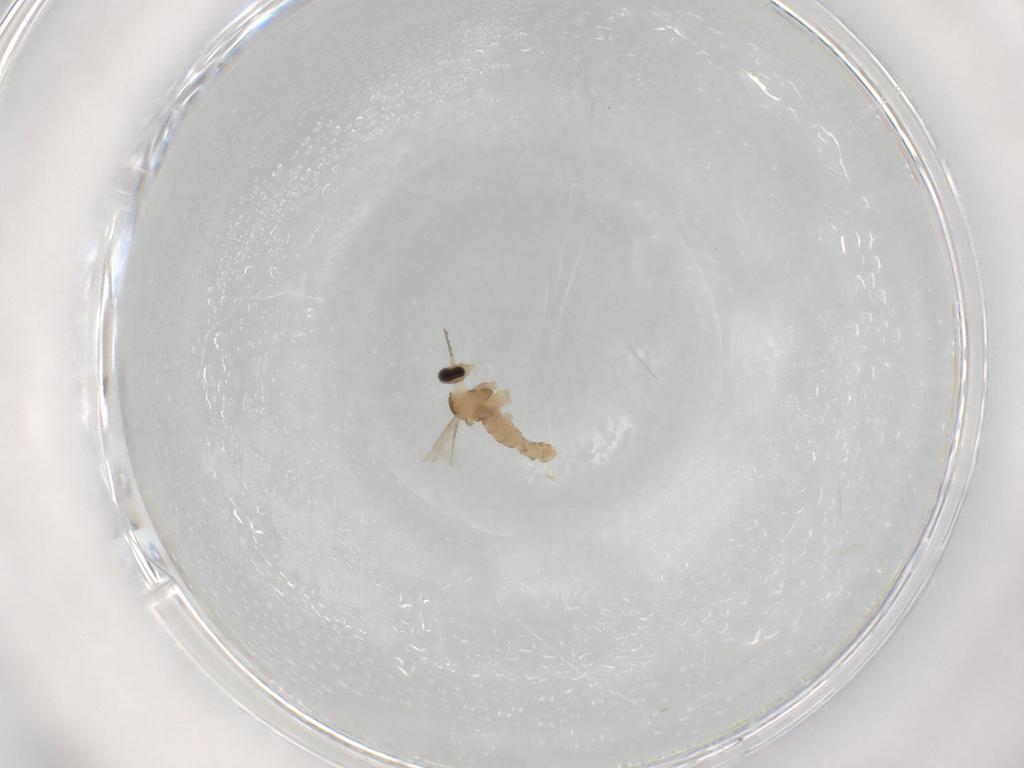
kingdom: Animalia
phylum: Arthropoda
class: Insecta
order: Diptera
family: Cecidomyiidae
